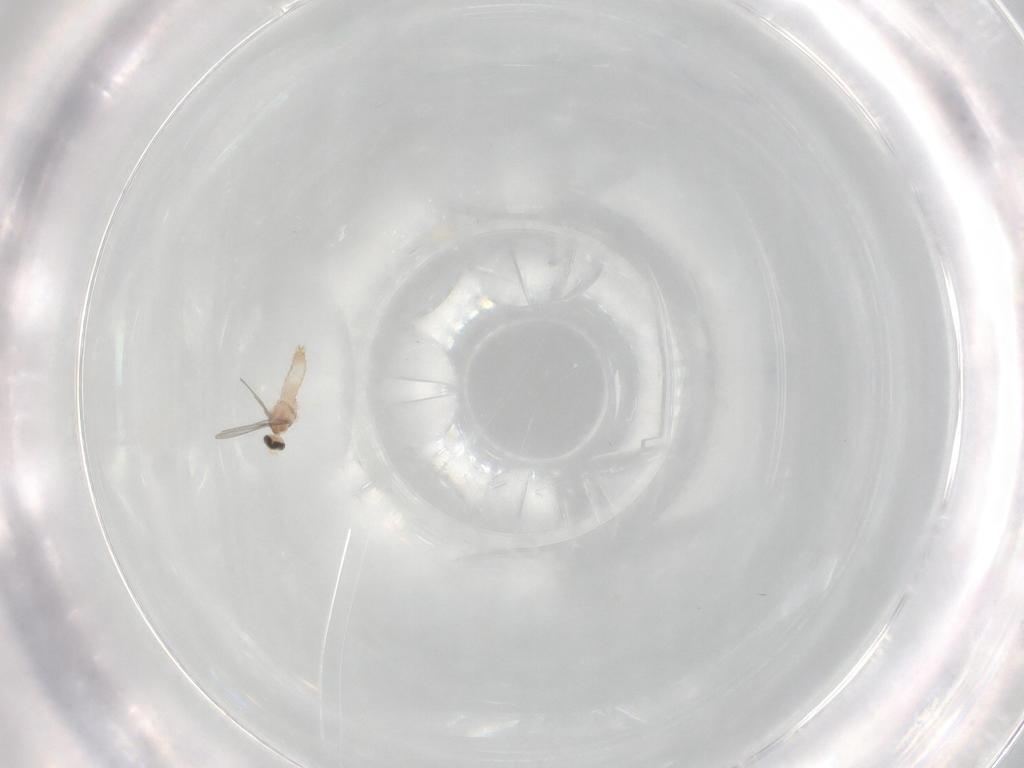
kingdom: Animalia
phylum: Arthropoda
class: Insecta
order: Diptera
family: Cecidomyiidae
